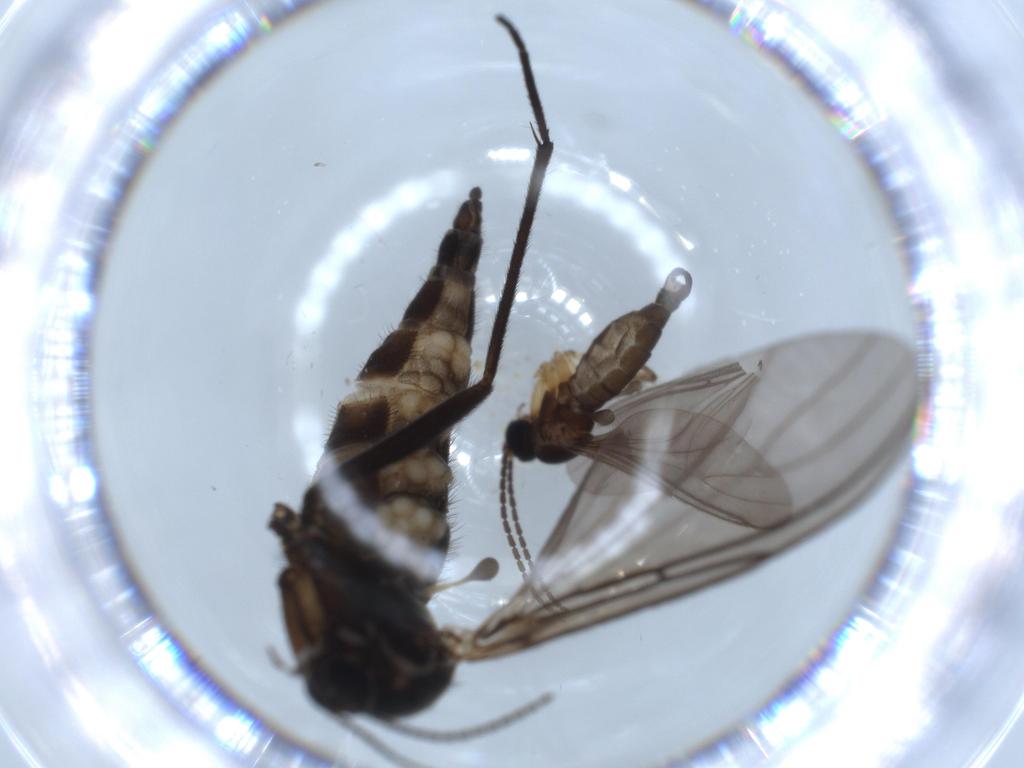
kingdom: Animalia
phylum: Arthropoda
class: Insecta
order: Diptera
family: Sciaridae
